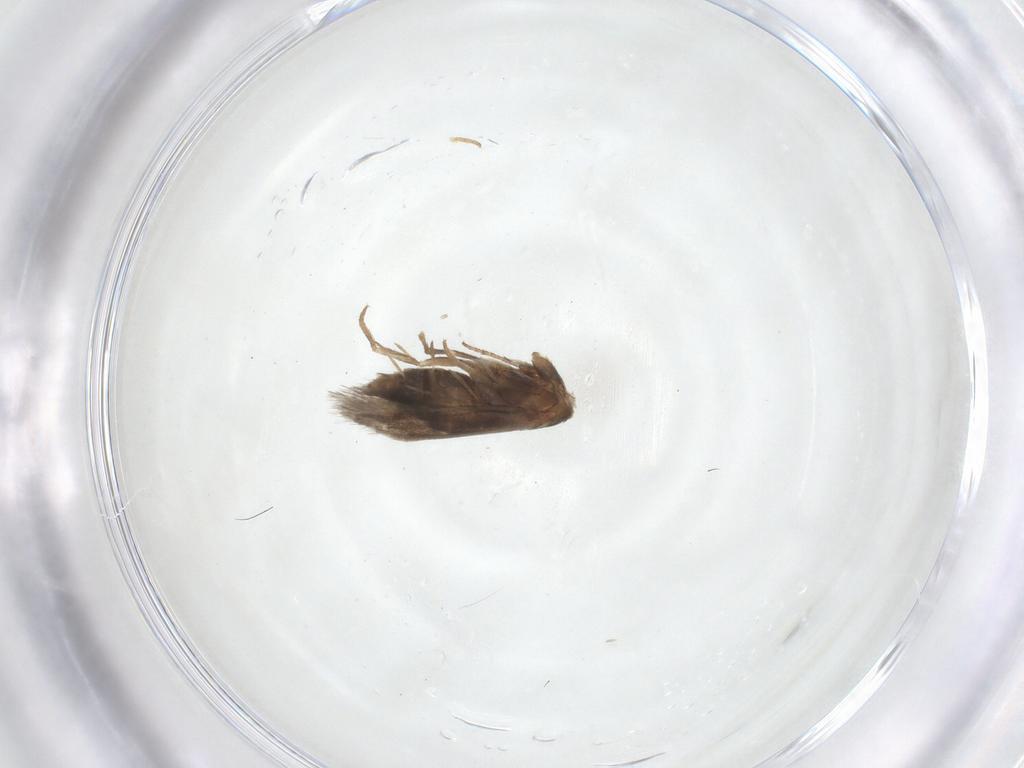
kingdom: Animalia
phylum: Arthropoda
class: Insecta
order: Lepidoptera
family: Heliozelidae
